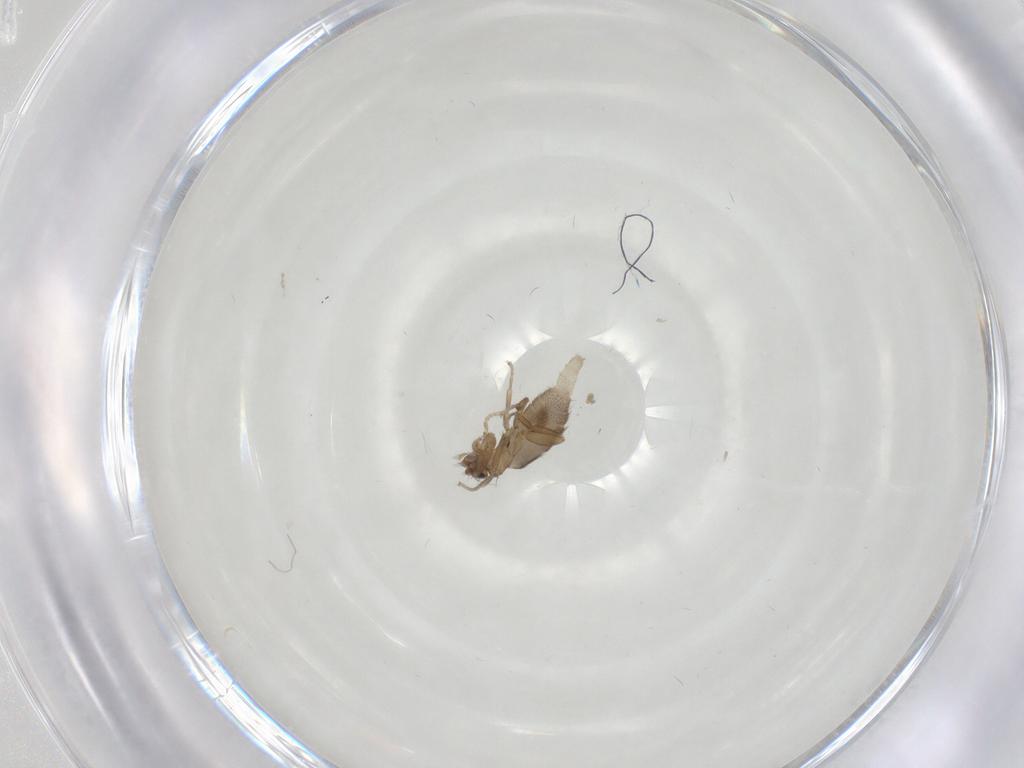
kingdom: Animalia
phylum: Arthropoda
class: Insecta
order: Diptera
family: Phoridae
